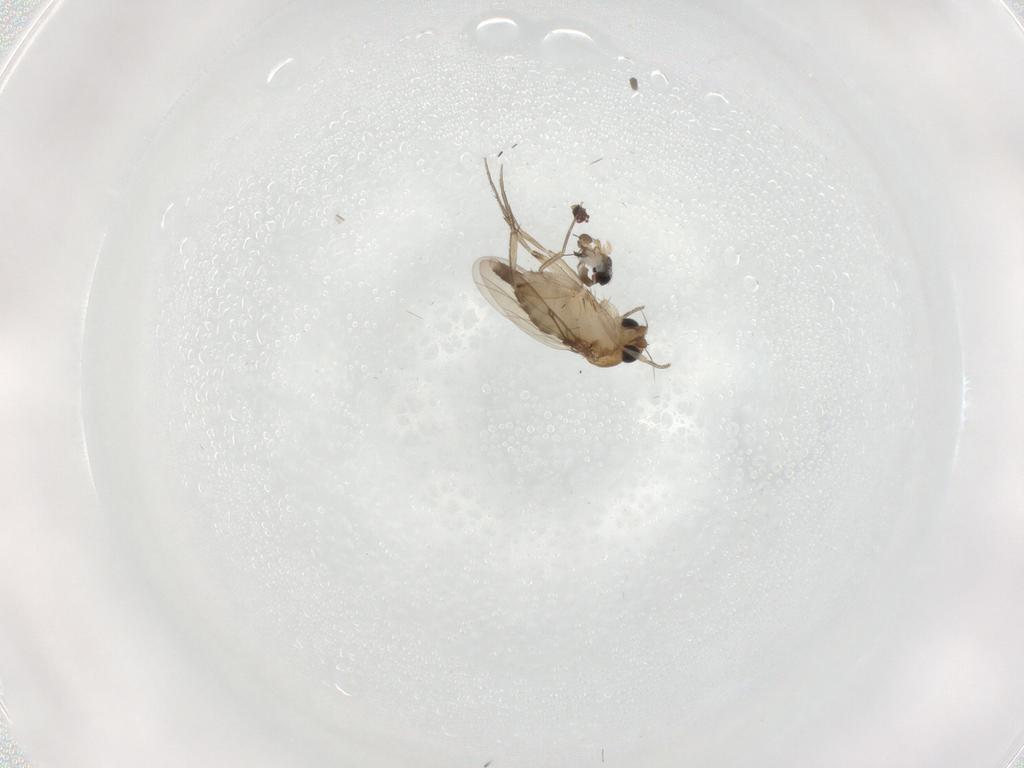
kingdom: Animalia
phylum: Arthropoda
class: Insecta
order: Diptera
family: Phoridae
